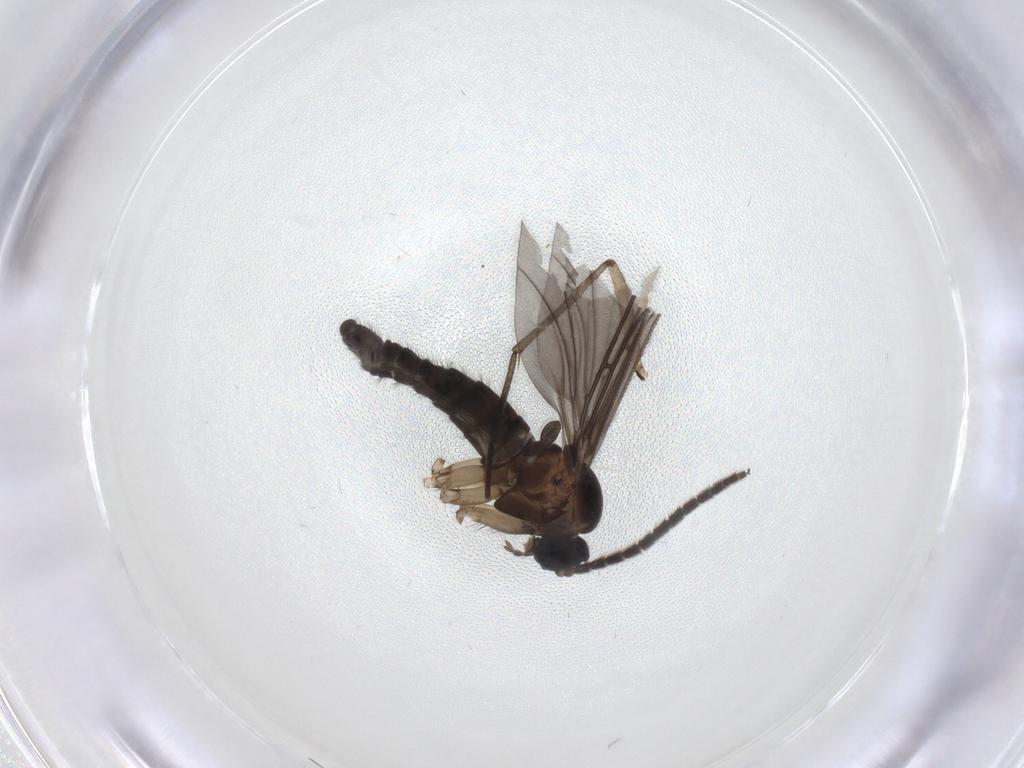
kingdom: Animalia
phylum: Arthropoda
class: Insecta
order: Diptera
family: Sciaridae
